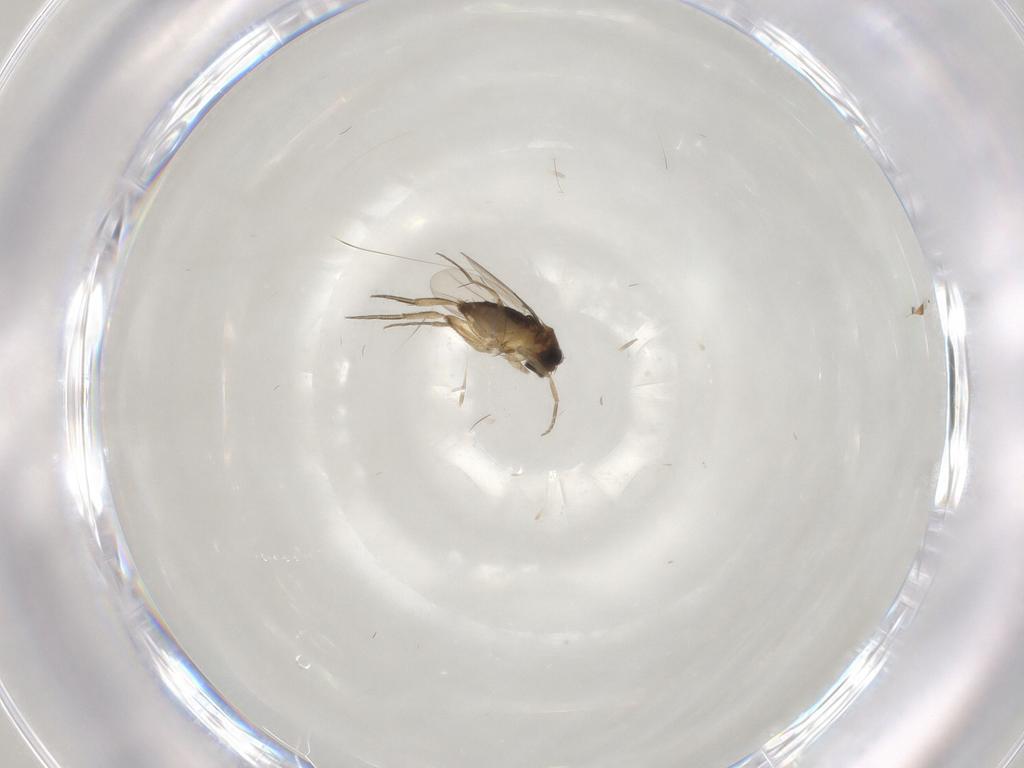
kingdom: Animalia
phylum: Arthropoda
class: Insecta
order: Diptera
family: Phoridae
